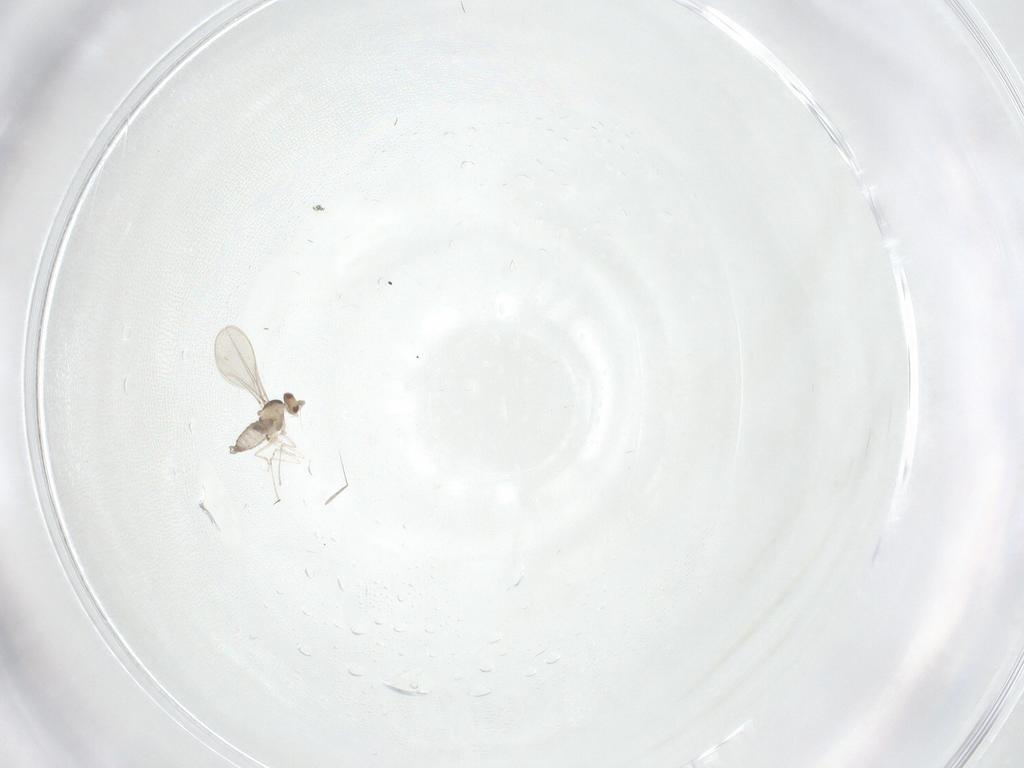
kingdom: Animalia
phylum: Arthropoda
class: Insecta
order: Diptera
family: Cecidomyiidae
